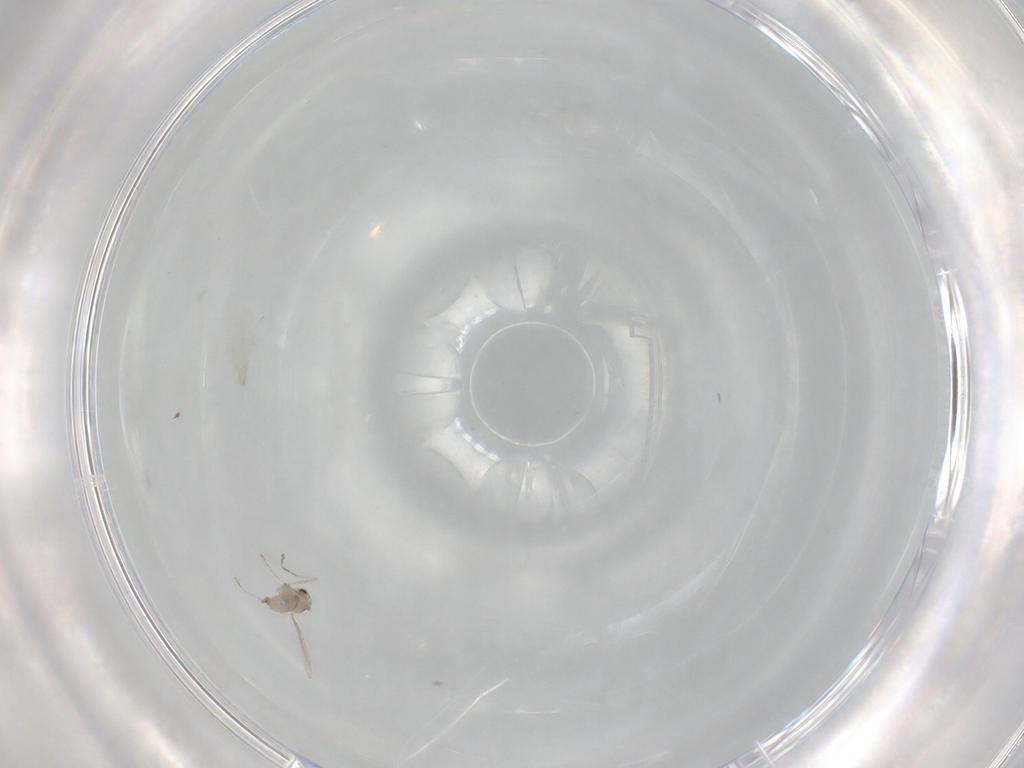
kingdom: Animalia
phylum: Arthropoda
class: Insecta
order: Diptera
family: Cecidomyiidae
